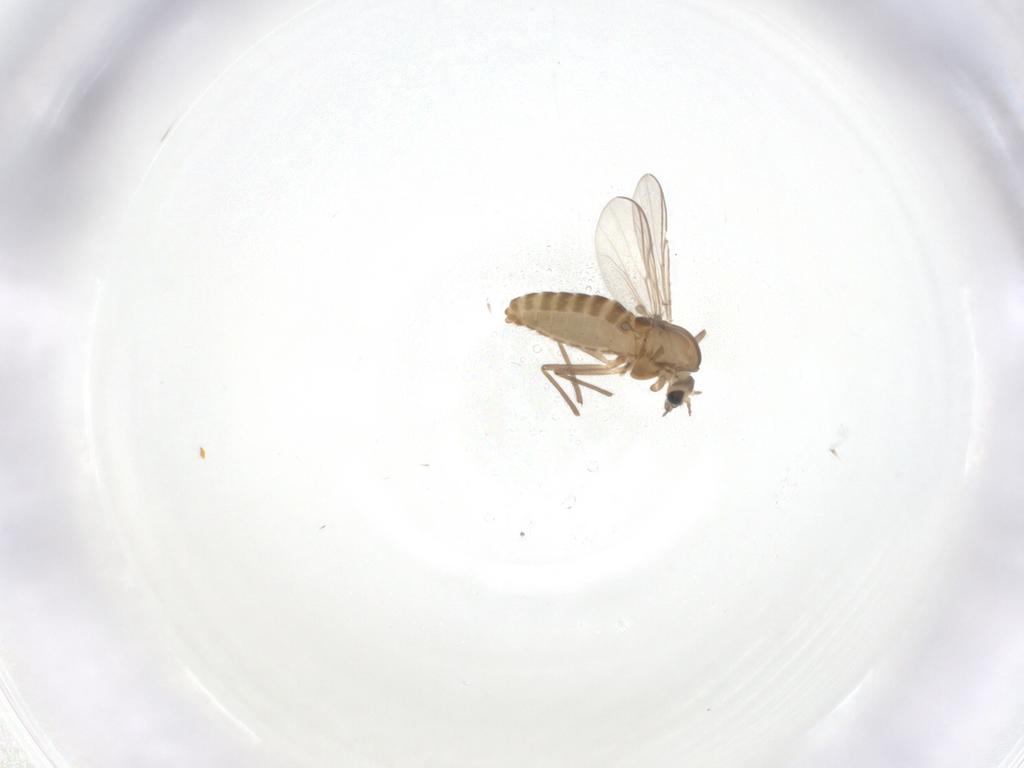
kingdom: Animalia
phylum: Arthropoda
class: Insecta
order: Diptera
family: Chironomidae
